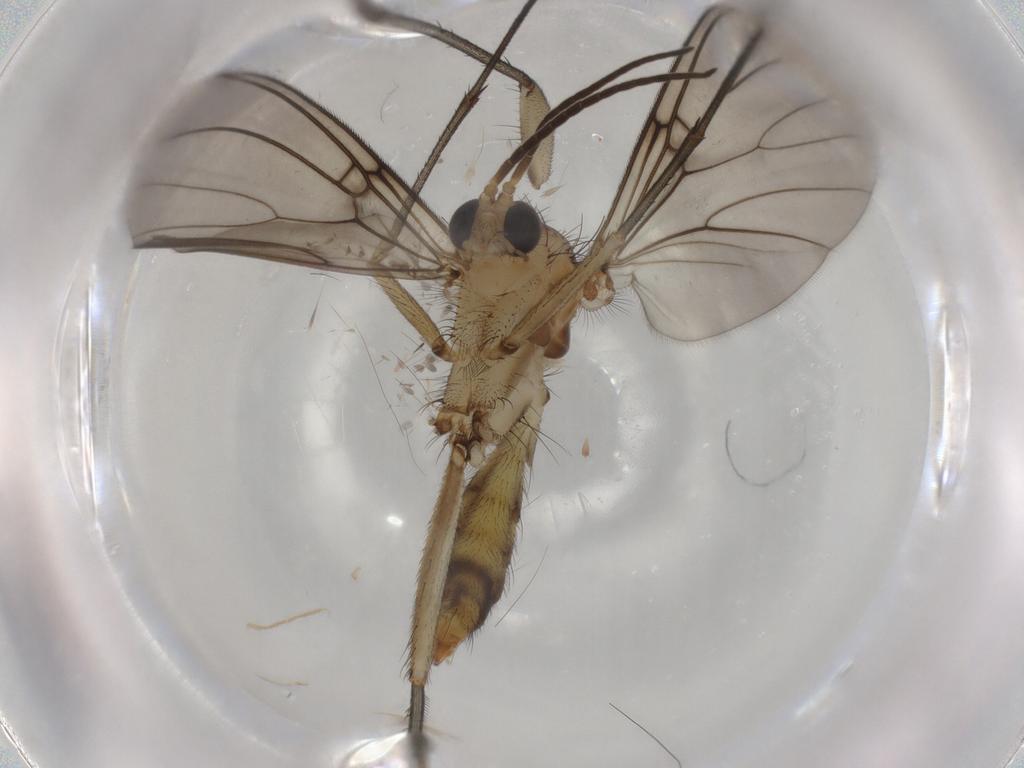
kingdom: Animalia
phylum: Arthropoda
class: Insecta
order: Diptera
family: Mycetophilidae
